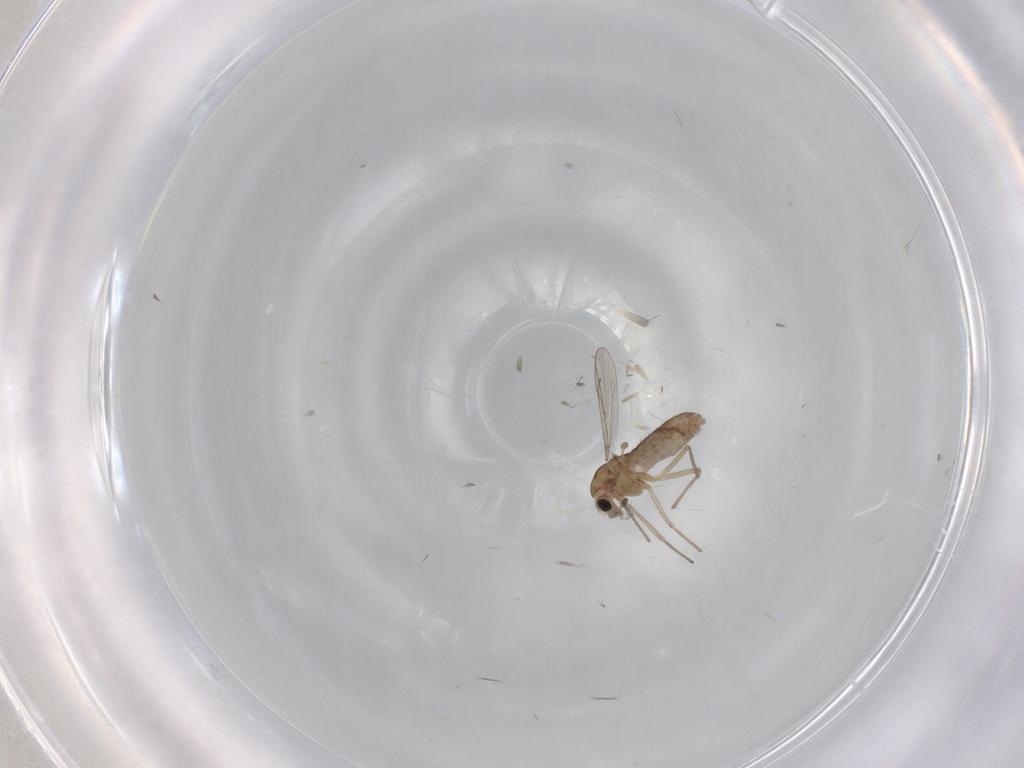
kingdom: Animalia
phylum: Arthropoda
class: Insecta
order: Diptera
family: Chironomidae
